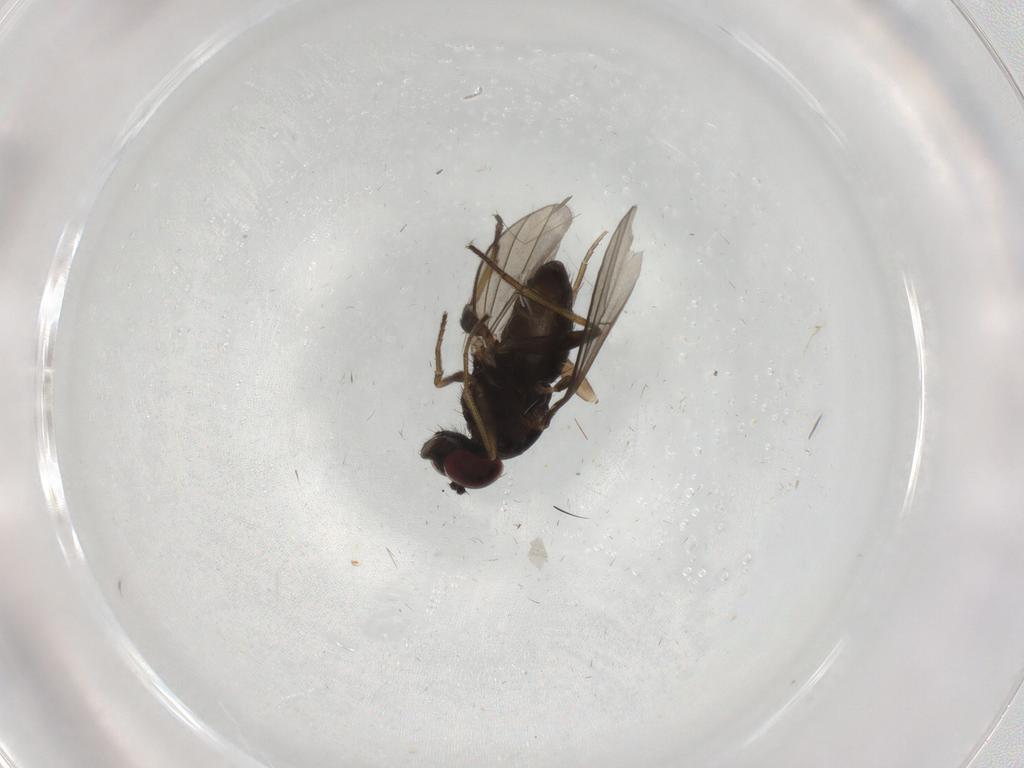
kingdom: Animalia
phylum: Arthropoda
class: Insecta
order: Diptera
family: Dolichopodidae
